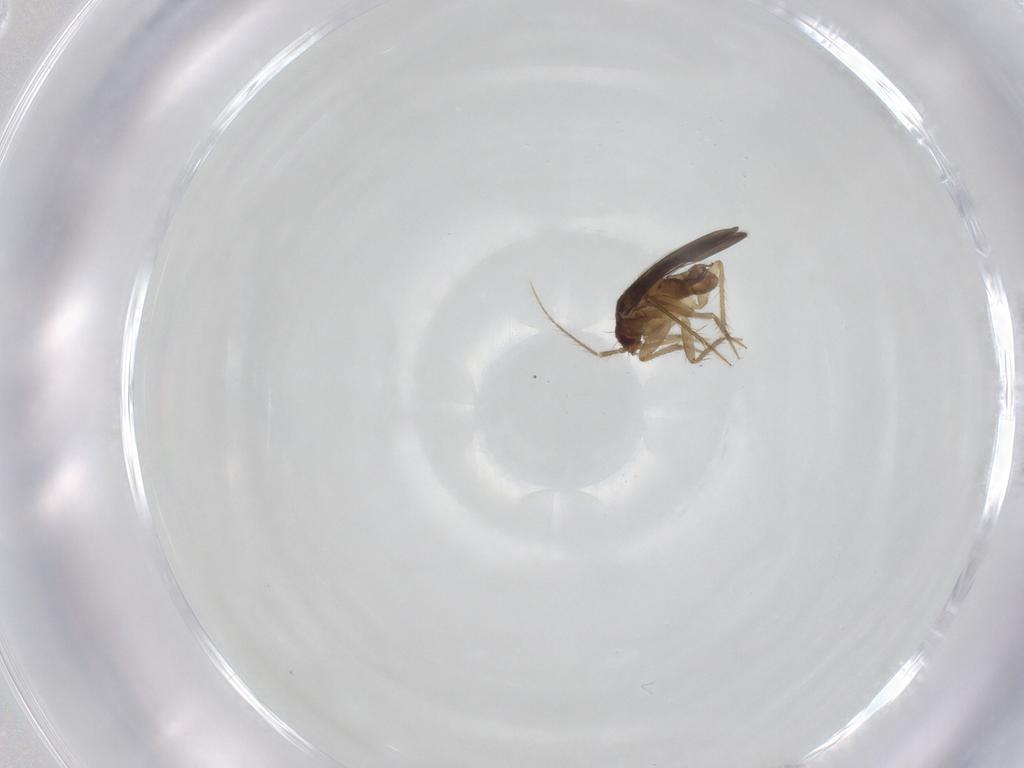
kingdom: Animalia
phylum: Arthropoda
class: Insecta
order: Hemiptera
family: Ceratocombidae
